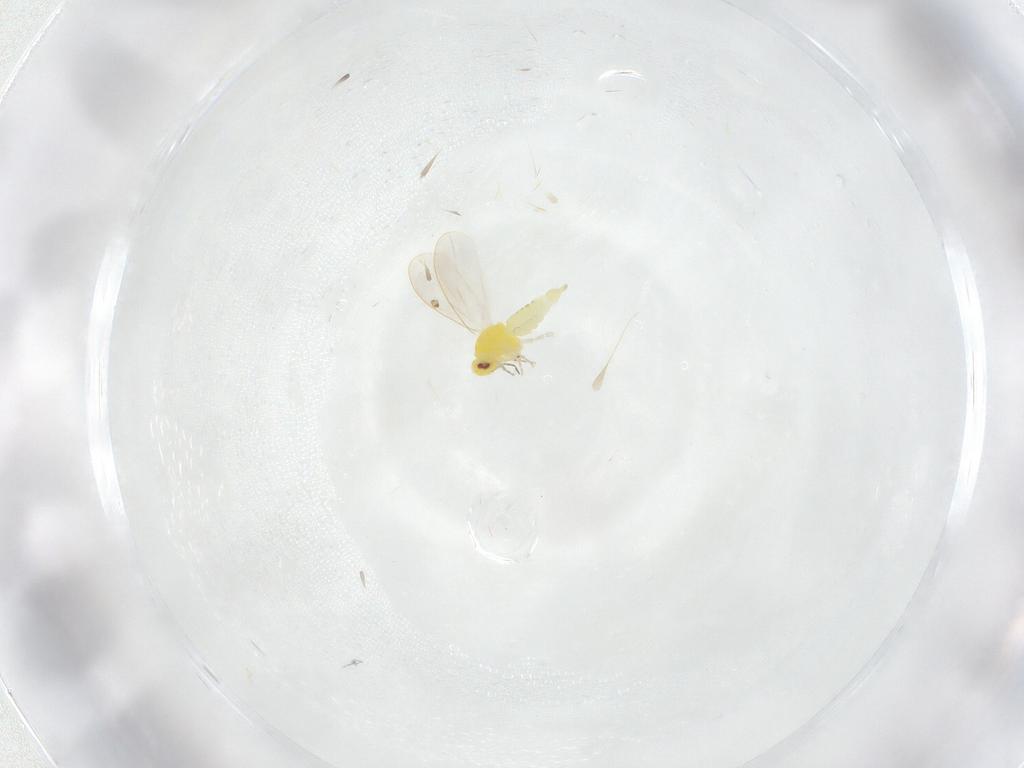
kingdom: Animalia
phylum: Arthropoda
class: Insecta
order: Hemiptera
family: Aleyrodidae
